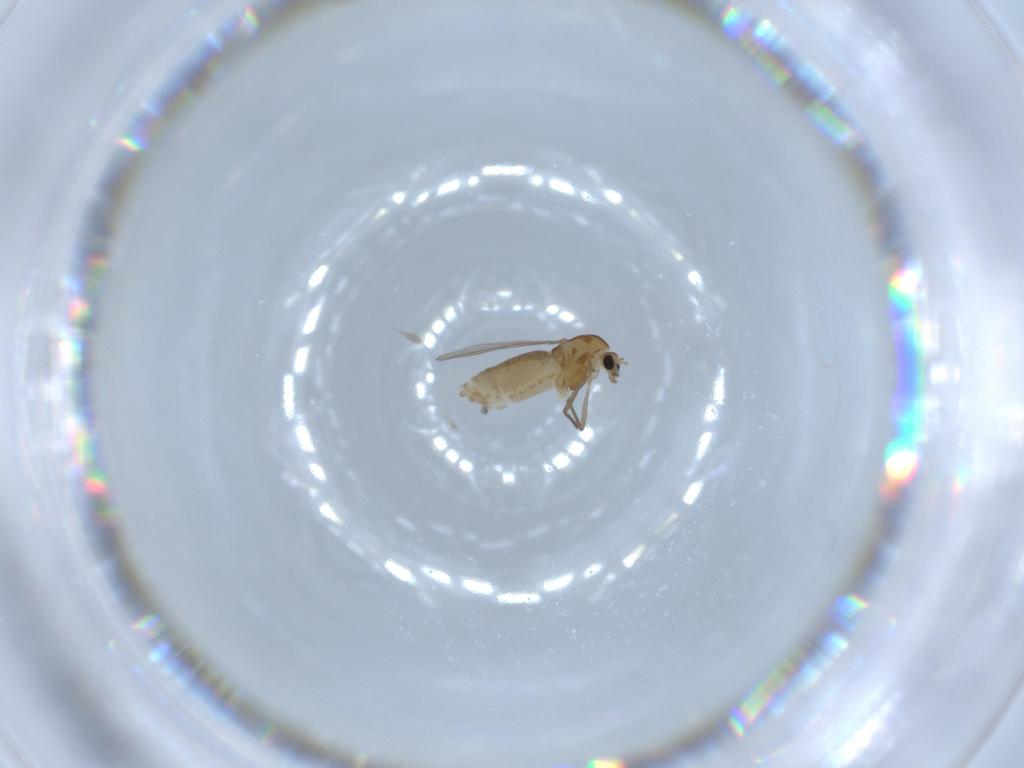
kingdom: Animalia
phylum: Arthropoda
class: Insecta
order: Diptera
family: Chironomidae
